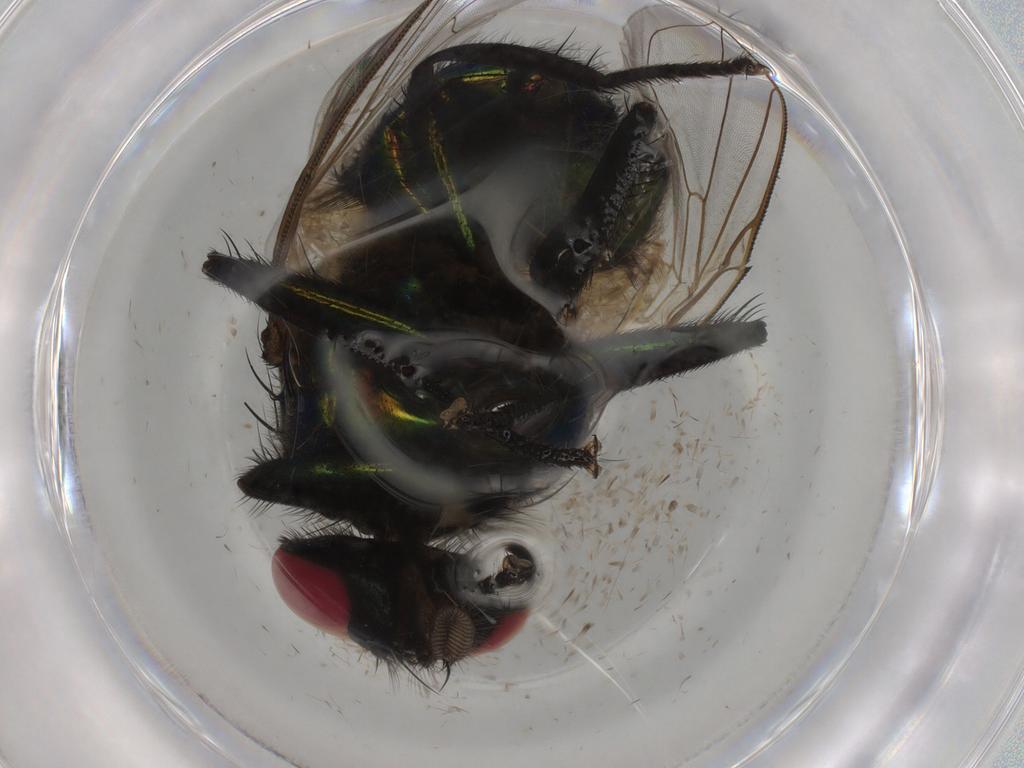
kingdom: Animalia
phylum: Arthropoda
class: Insecta
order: Diptera
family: Muscidae
